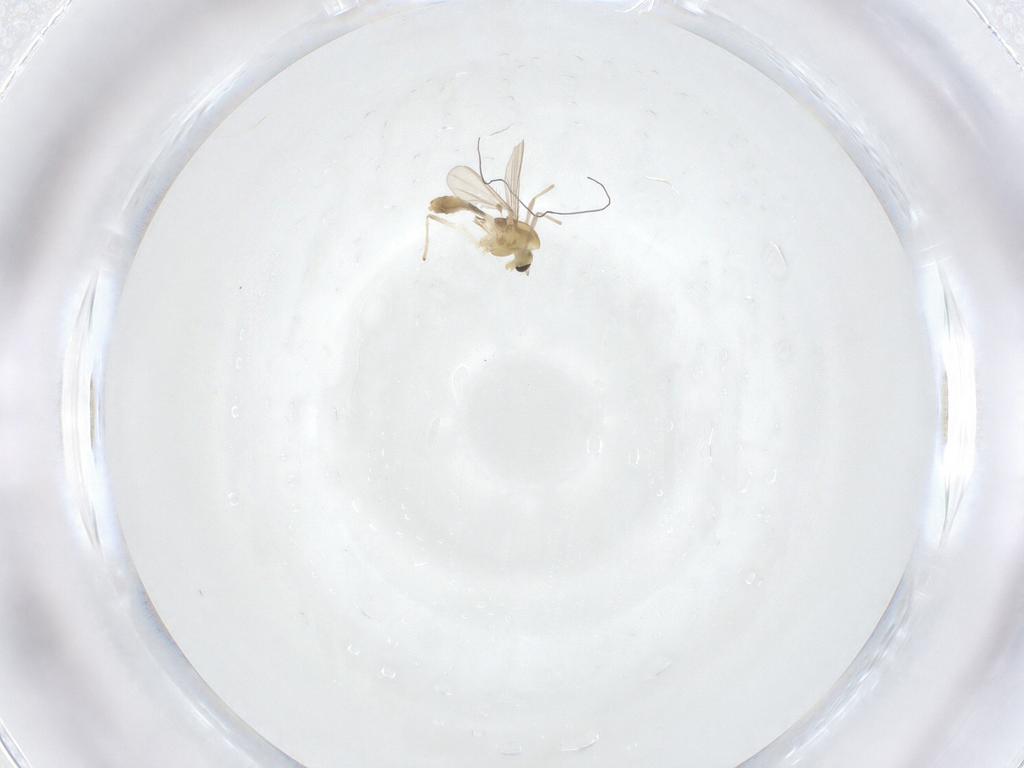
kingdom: Animalia
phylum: Arthropoda
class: Insecta
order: Diptera
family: Chironomidae
